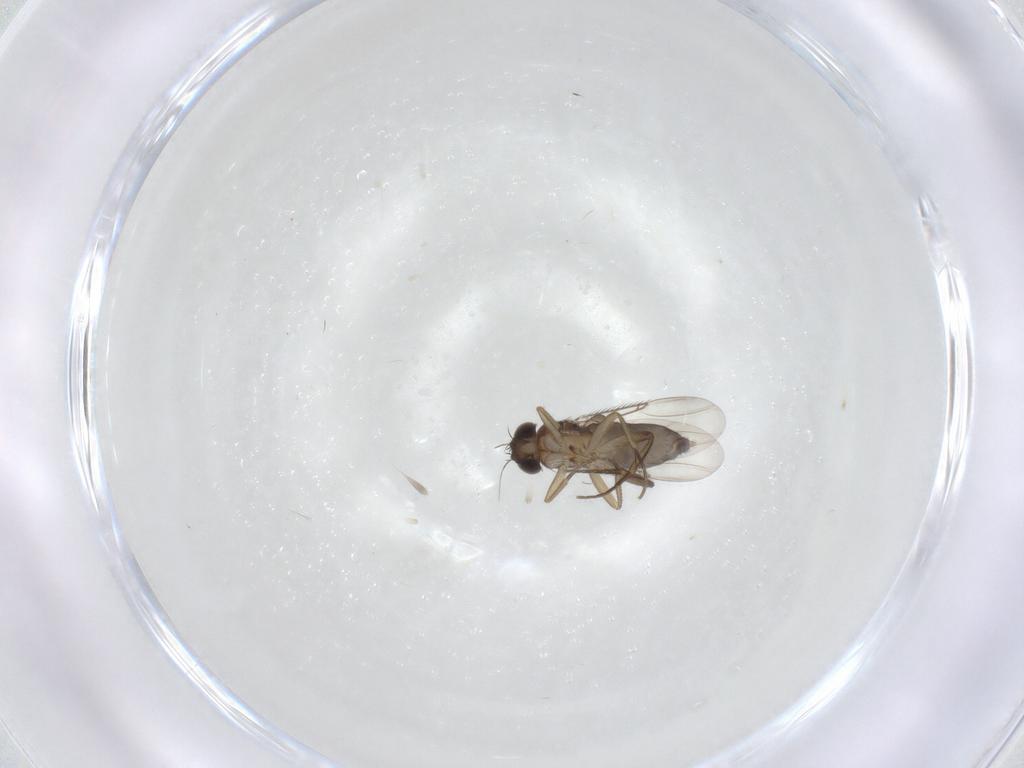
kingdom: Animalia
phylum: Arthropoda
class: Insecta
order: Diptera
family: Phoridae
